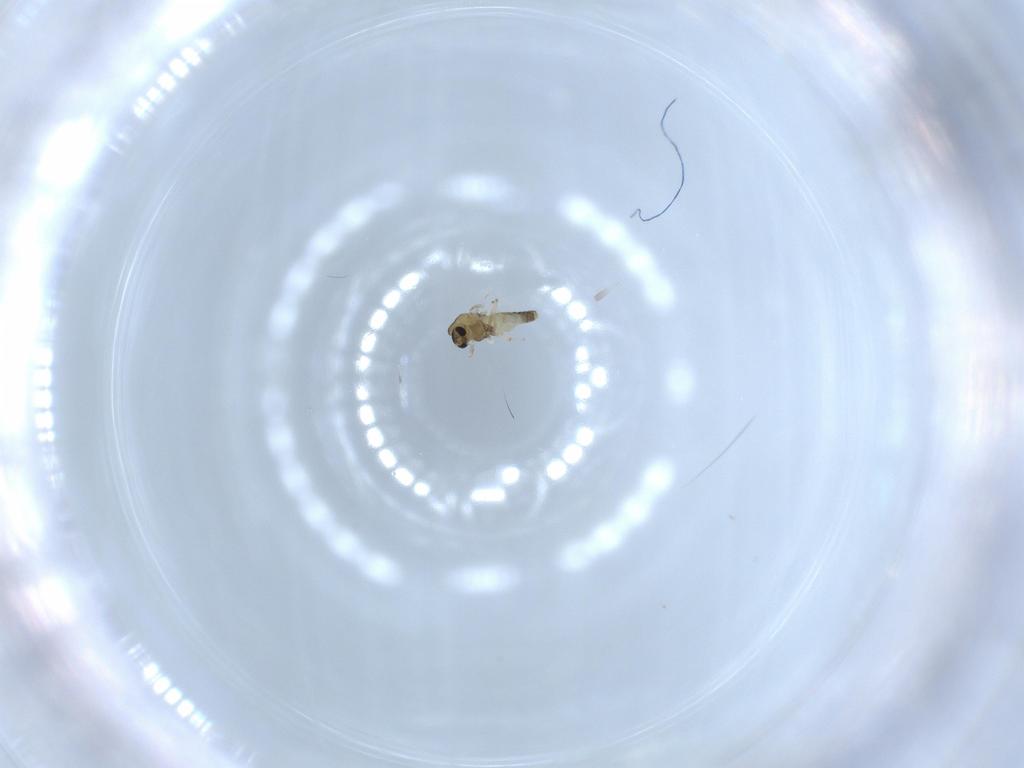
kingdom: Animalia
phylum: Arthropoda
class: Insecta
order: Diptera
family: Chironomidae
